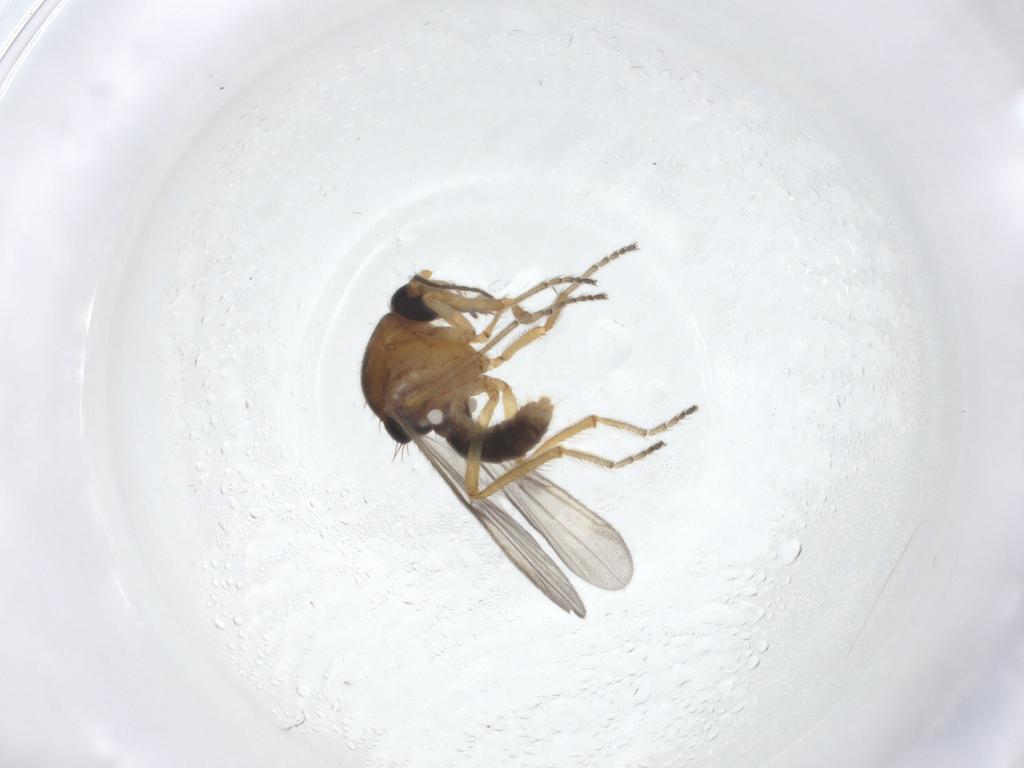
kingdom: Animalia
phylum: Arthropoda
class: Insecta
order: Diptera
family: Ceratopogonidae
